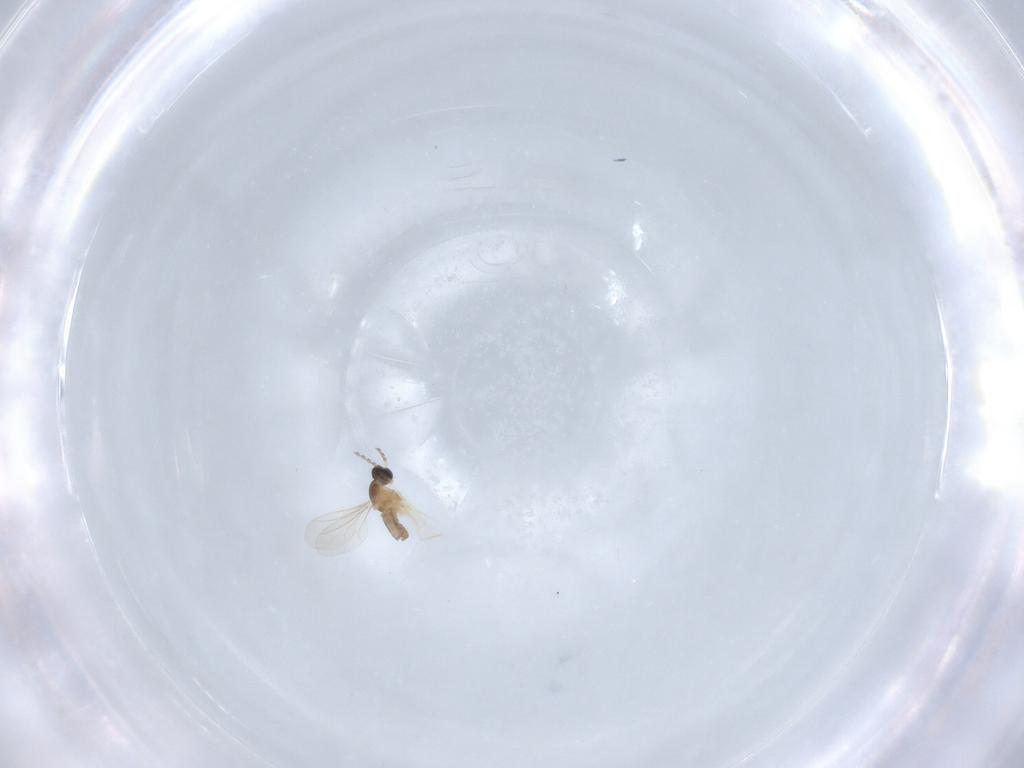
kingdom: Animalia
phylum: Arthropoda
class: Insecta
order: Diptera
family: Cecidomyiidae
